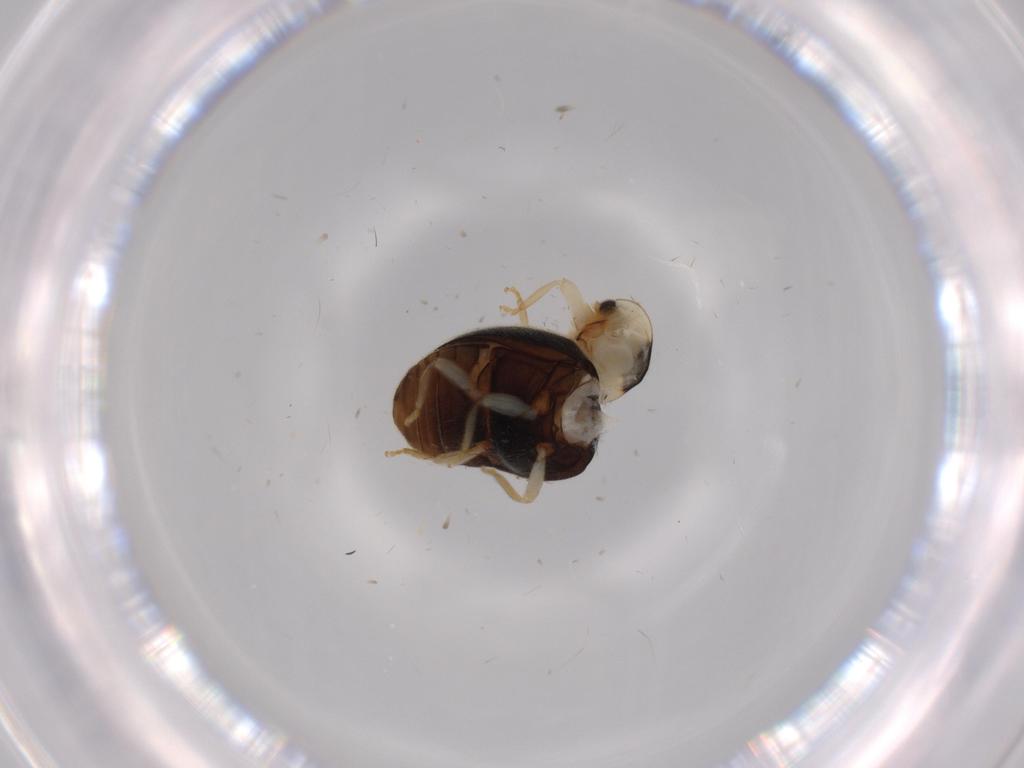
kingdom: Animalia
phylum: Arthropoda
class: Insecta
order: Coleoptera
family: Coccinellidae
